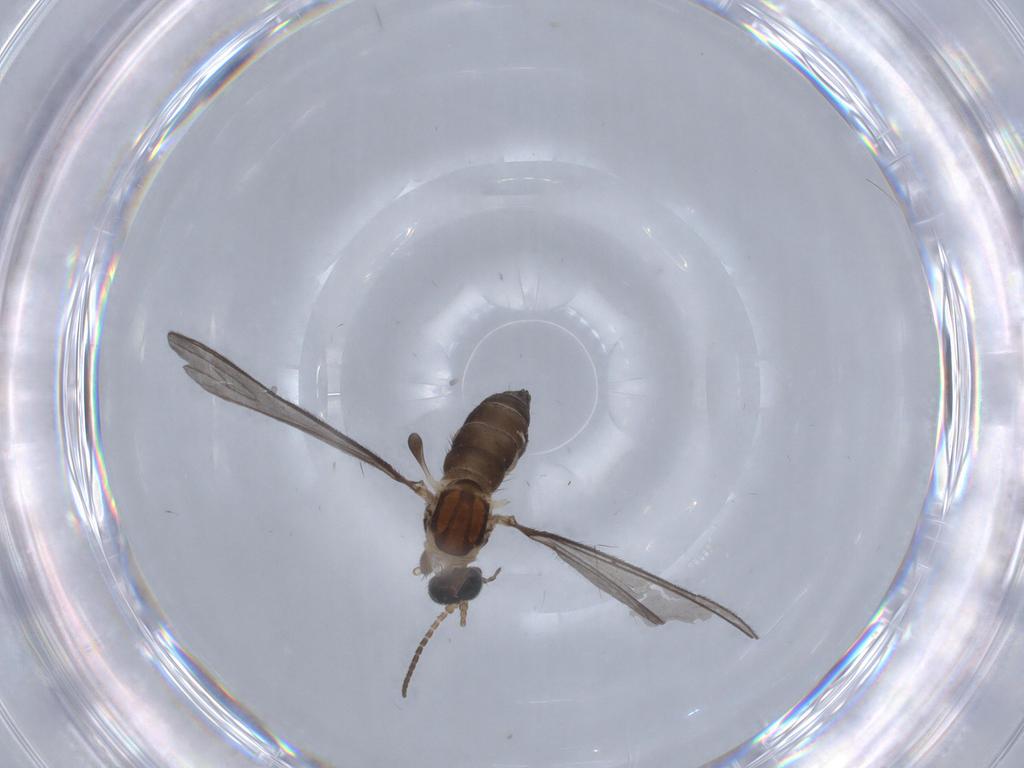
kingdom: Animalia
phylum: Arthropoda
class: Insecta
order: Diptera
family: Sciaridae
